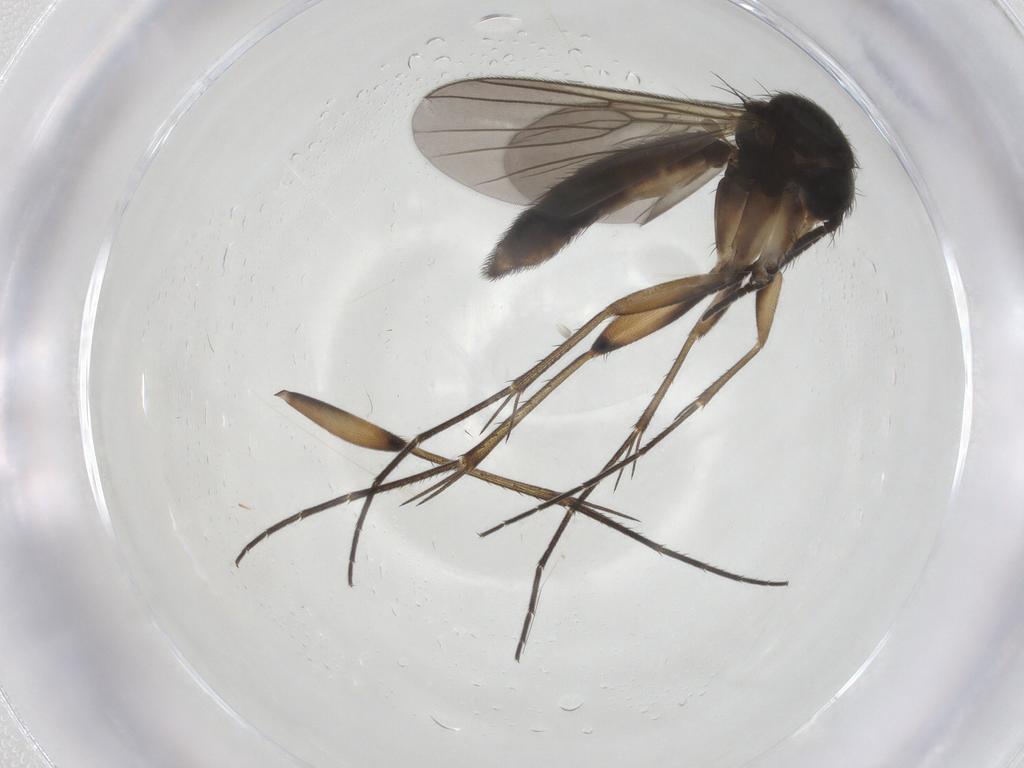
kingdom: Animalia
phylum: Arthropoda
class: Insecta
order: Diptera
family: Mycetophilidae
